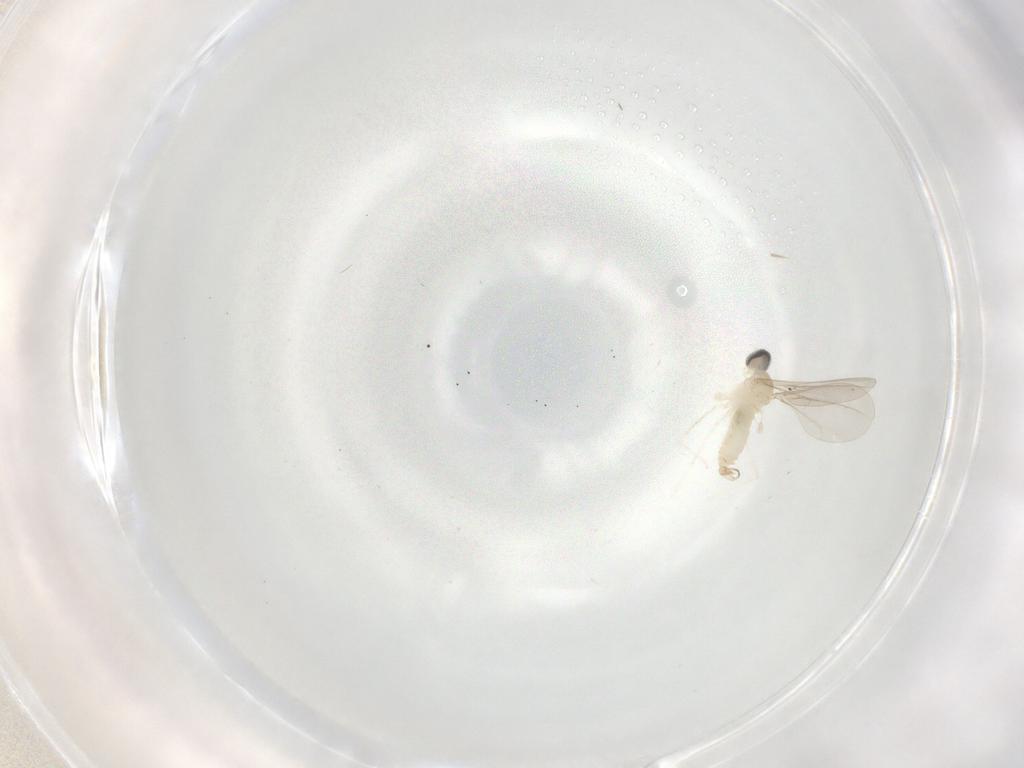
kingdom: Animalia
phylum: Arthropoda
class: Insecta
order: Diptera
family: Cecidomyiidae
